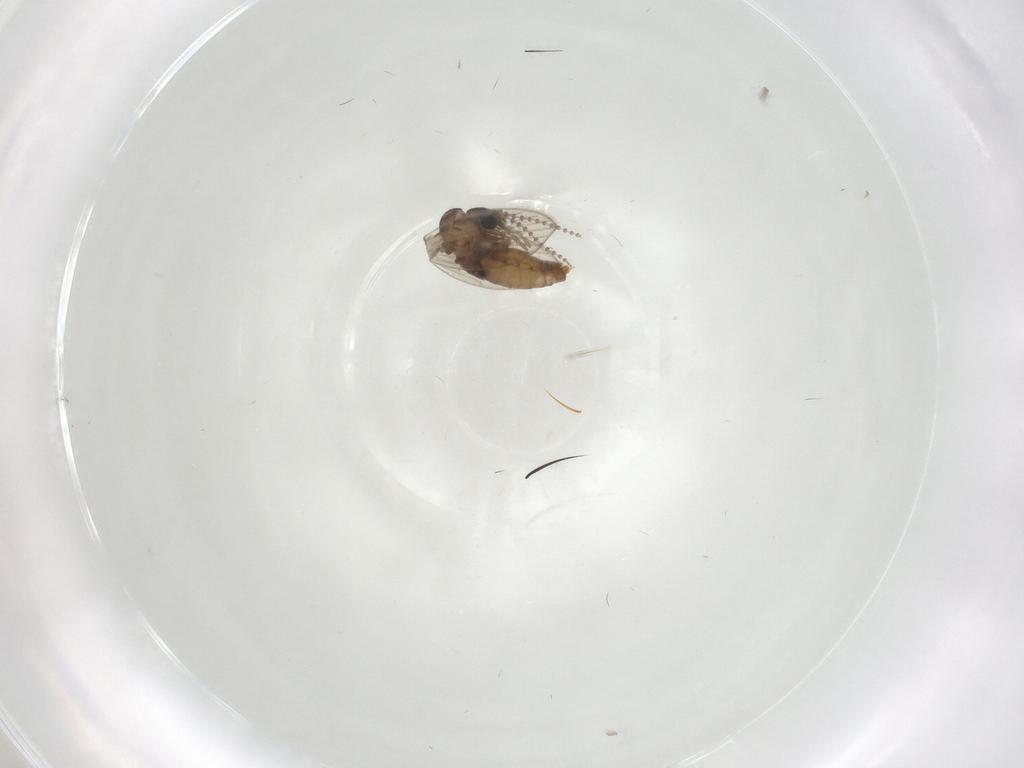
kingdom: Animalia
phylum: Arthropoda
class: Insecta
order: Diptera
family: Psychodidae
